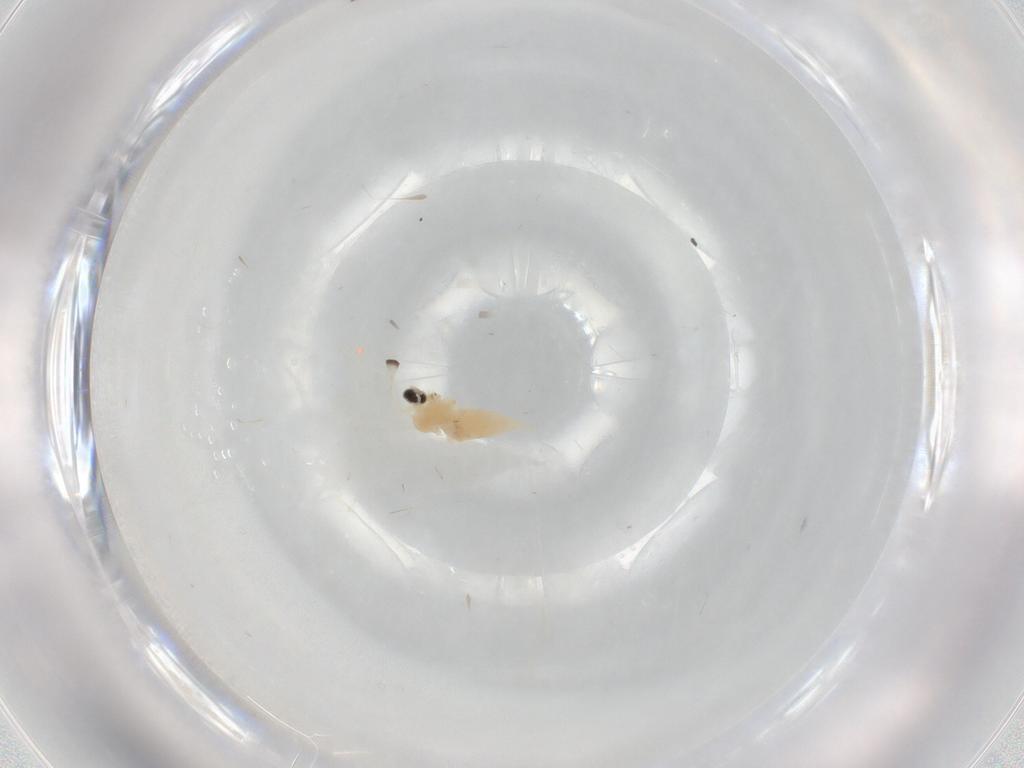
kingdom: Animalia
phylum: Arthropoda
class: Insecta
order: Diptera
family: Cecidomyiidae
